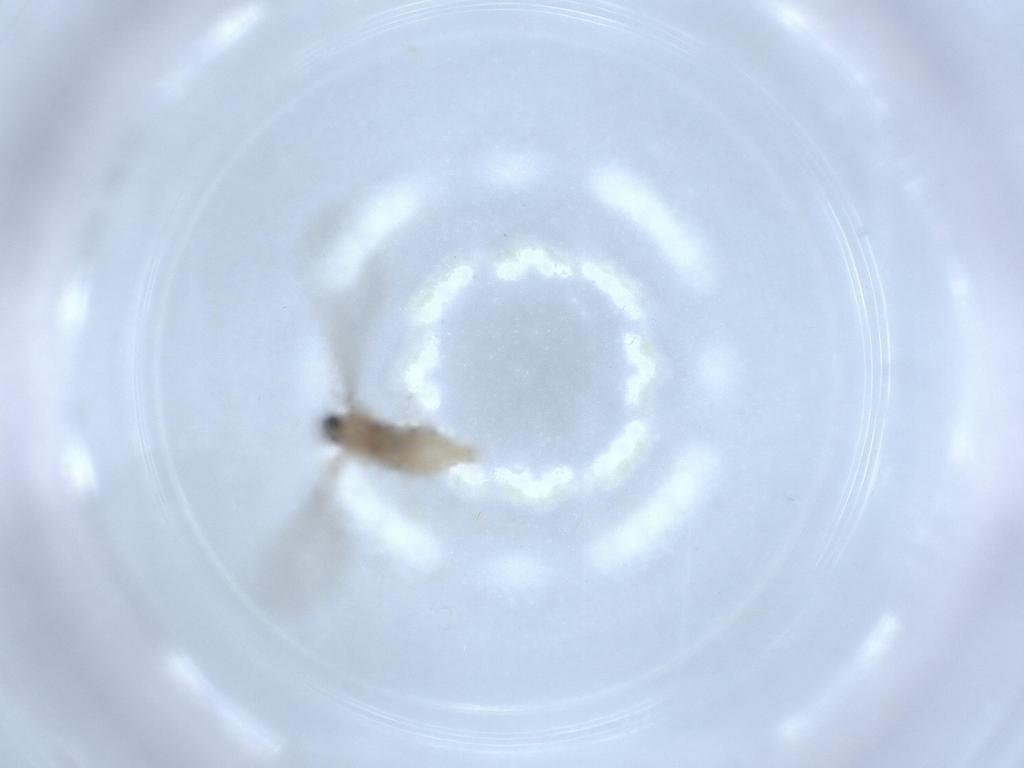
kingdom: Animalia
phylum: Arthropoda
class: Insecta
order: Diptera
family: Cecidomyiidae
